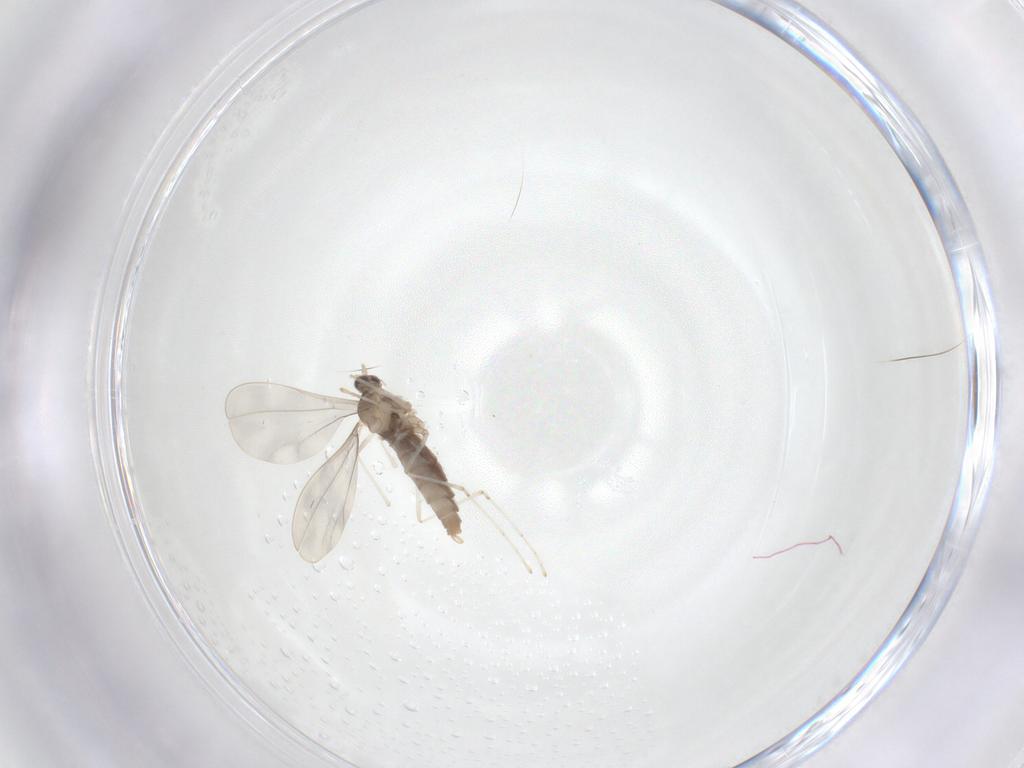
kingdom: Animalia
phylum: Arthropoda
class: Insecta
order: Diptera
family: Cecidomyiidae
